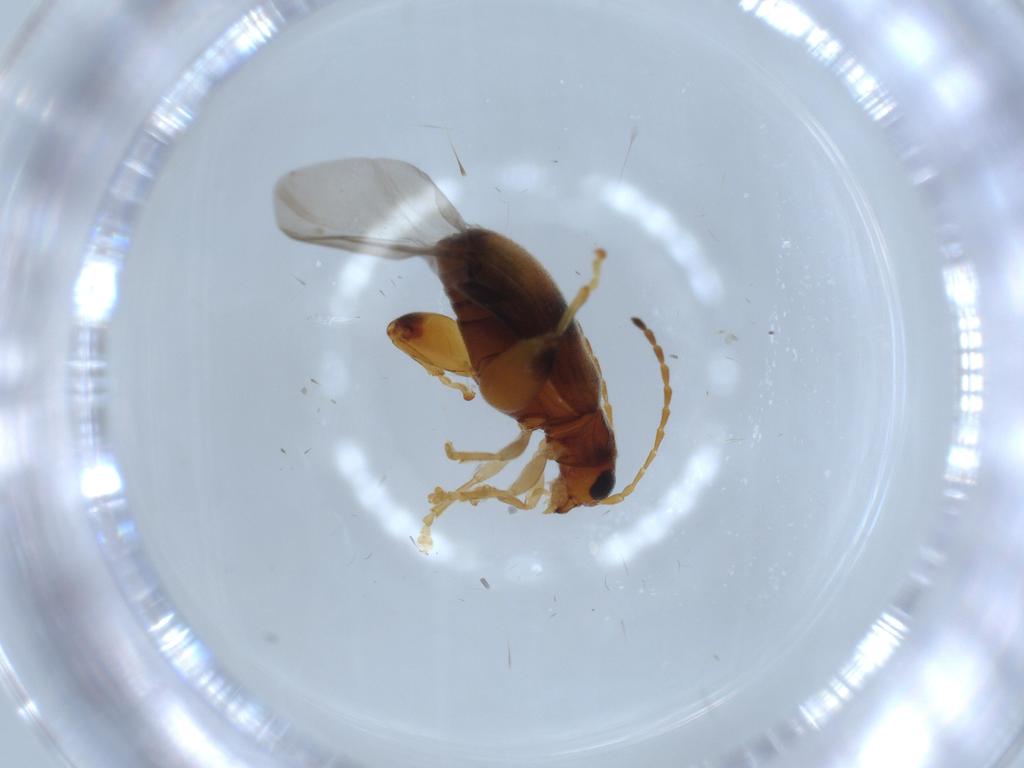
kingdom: Animalia
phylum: Arthropoda
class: Insecta
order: Coleoptera
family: Chrysomelidae
